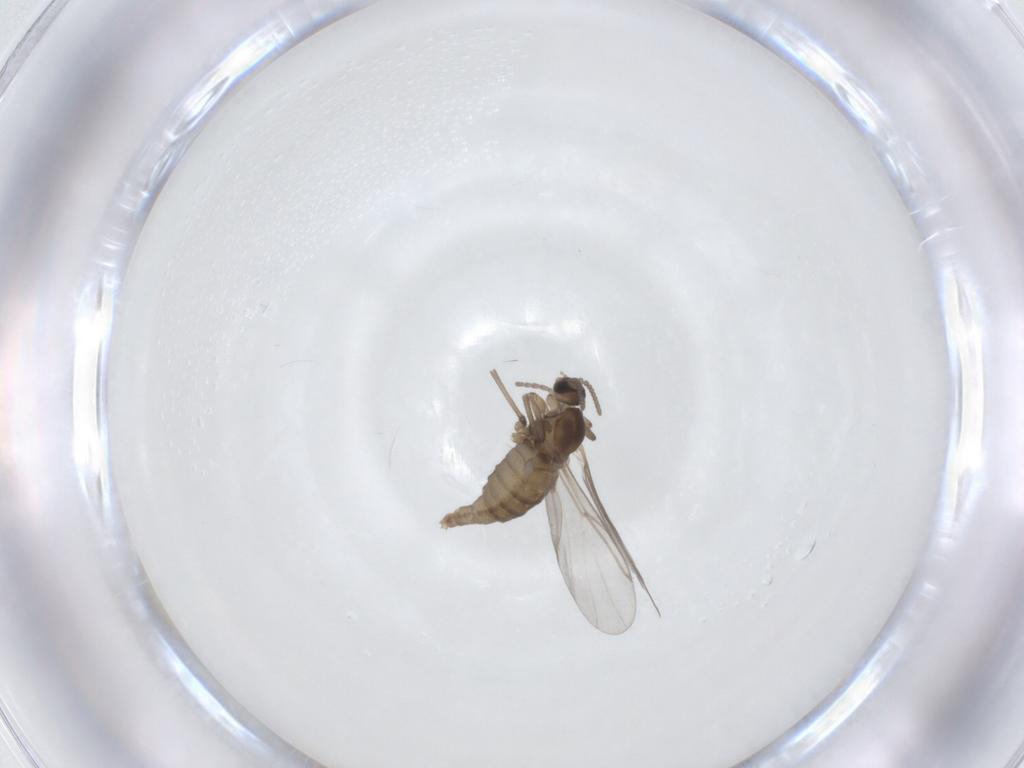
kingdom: Animalia
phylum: Arthropoda
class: Insecta
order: Diptera
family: Cecidomyiidae
